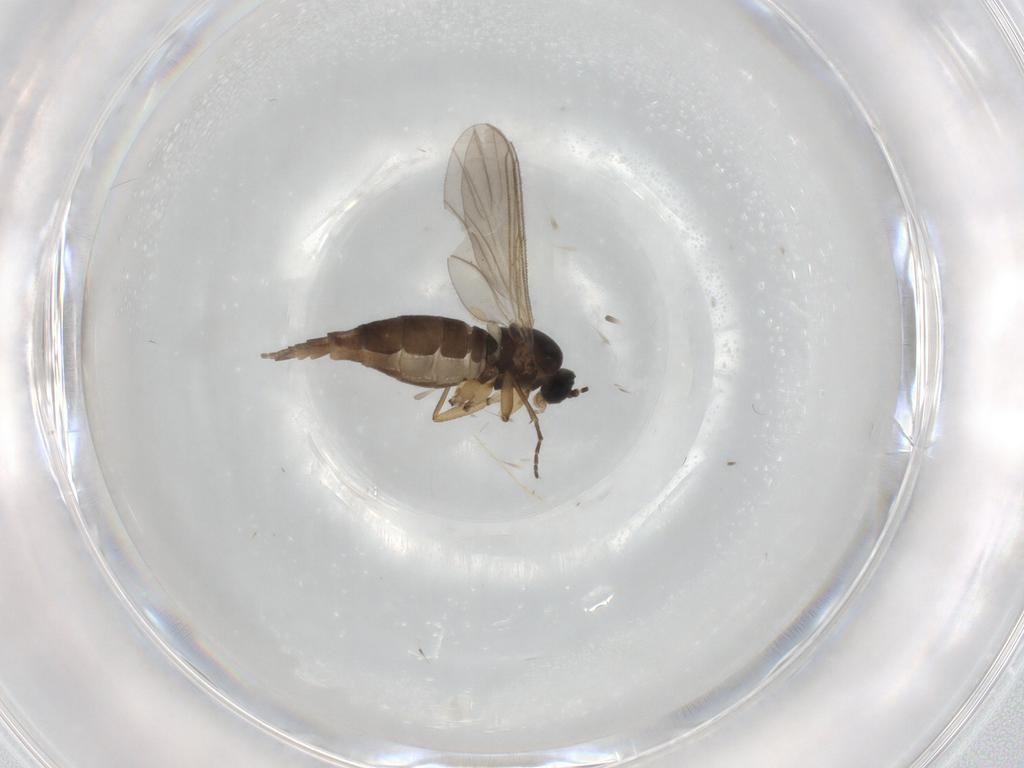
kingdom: Animalia
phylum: Arthropoda
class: Insecta
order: Diptera
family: Sciaridae
